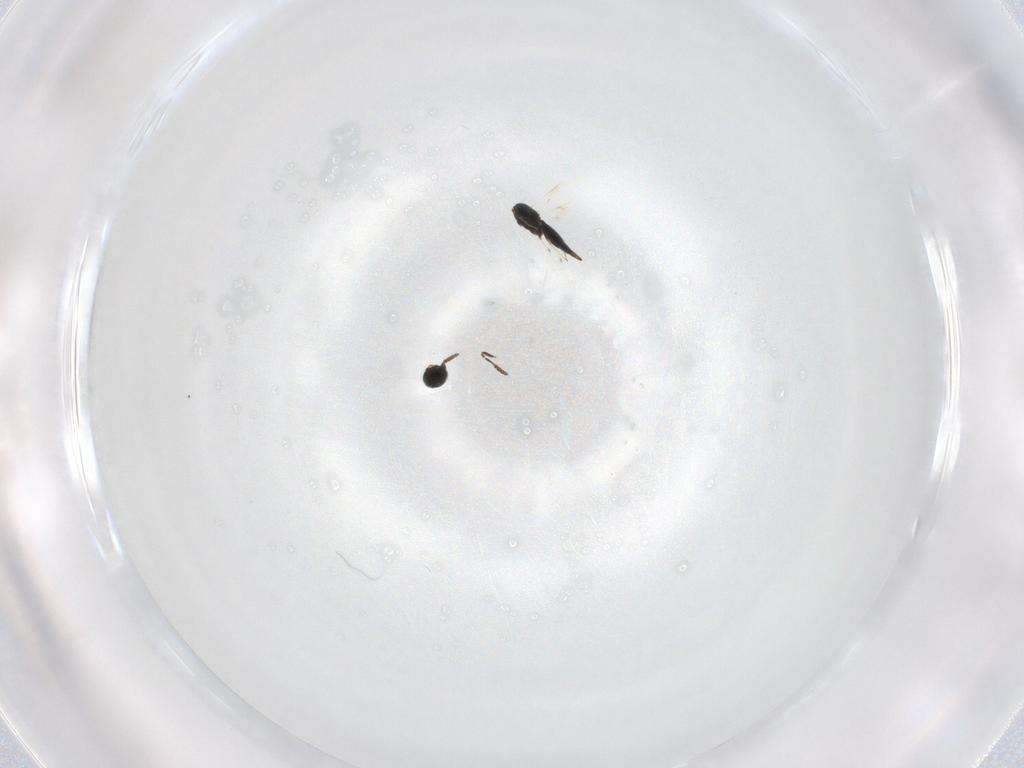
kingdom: Animalia
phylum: Arthropoda
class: Insecta
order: Hymenoptera
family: Scelionidae
